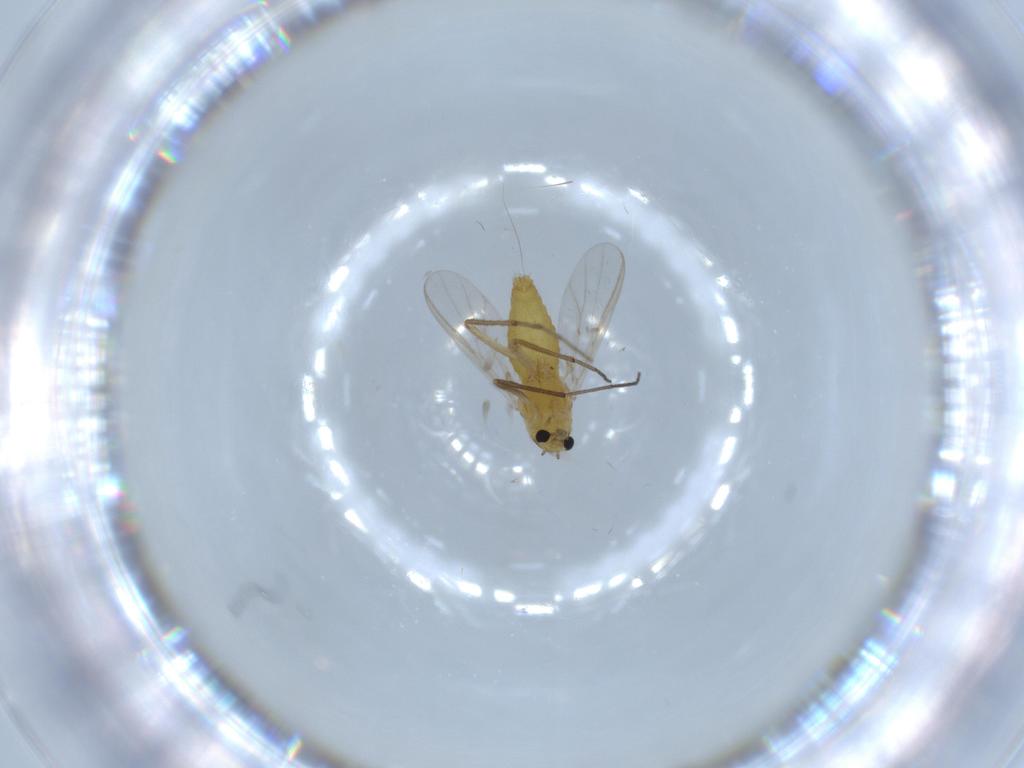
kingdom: Animalia
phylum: Arthropoda
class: Insecta
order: Diptera
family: Chironomidae
